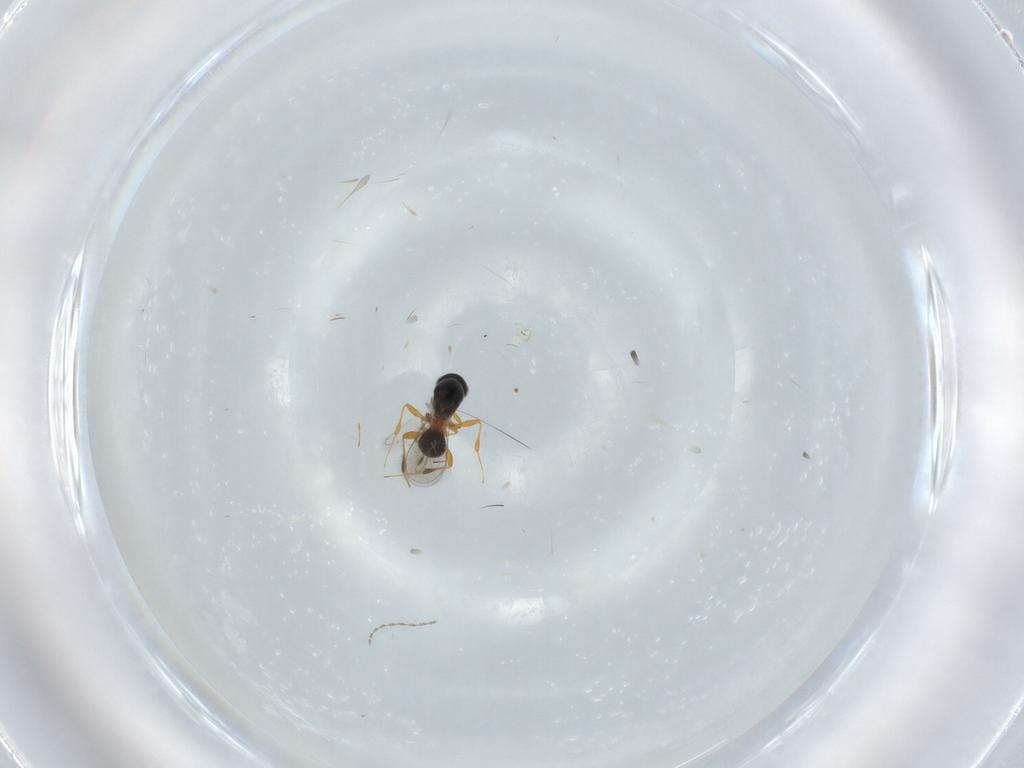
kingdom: Animalia
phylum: Arthropoda
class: Insecta
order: Hymenoptera
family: Platygastridae
